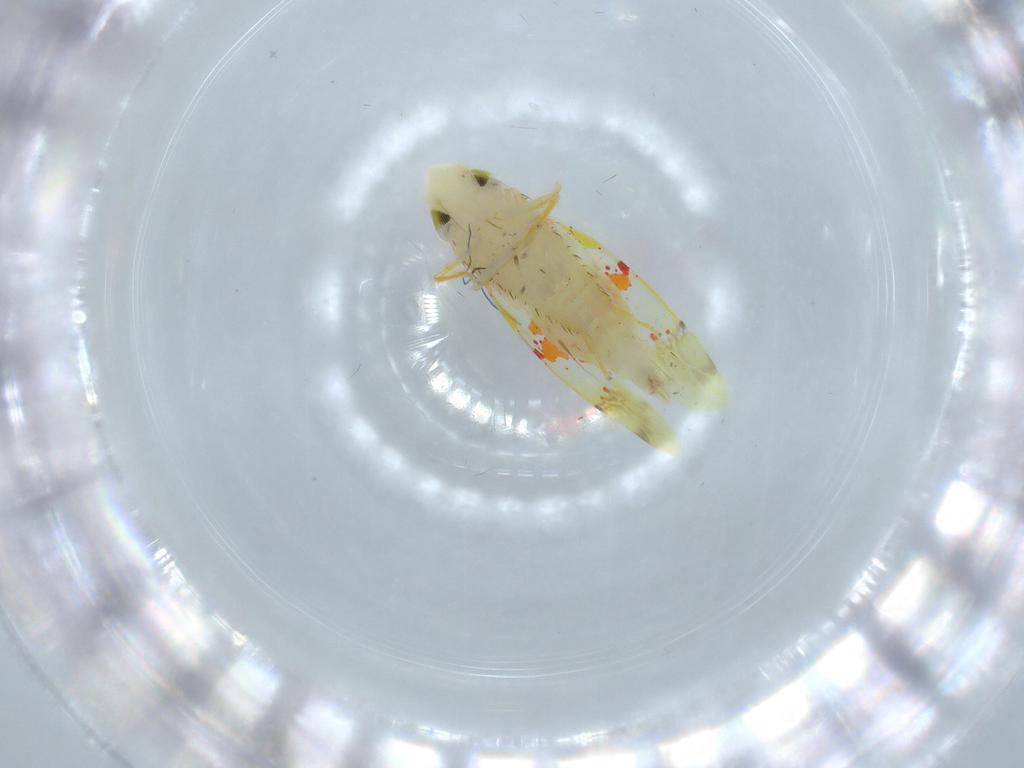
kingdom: Animalia
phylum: Arthropoda
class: Insecta
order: Hemiptera
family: Cicadellidae
